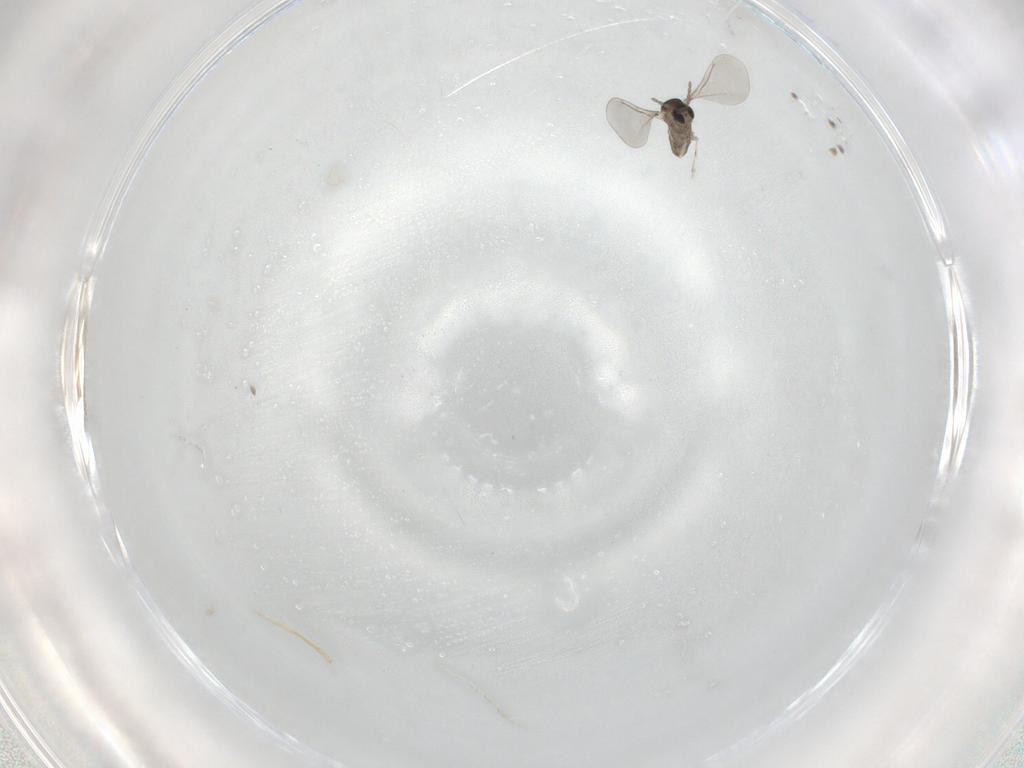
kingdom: Animalia
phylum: Arthropoda
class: Insecta
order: Diptera
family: Cecidomyiidae
